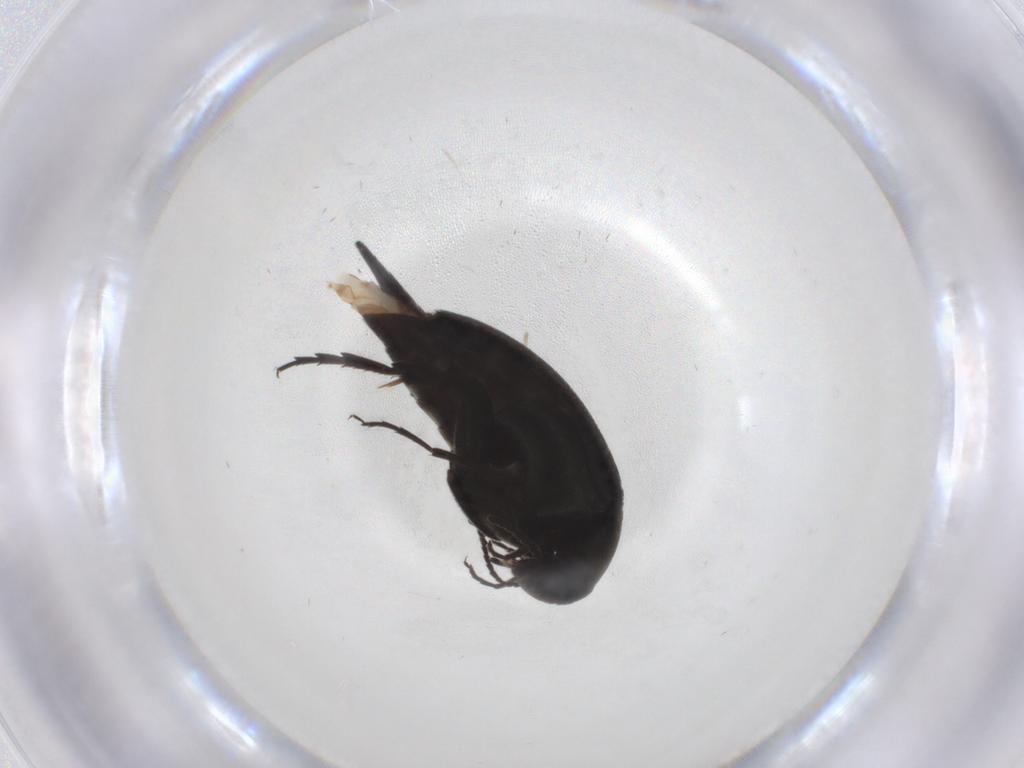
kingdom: Animalia
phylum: Arthropoda
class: Insecta
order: Coleoptera
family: Mordellidae
